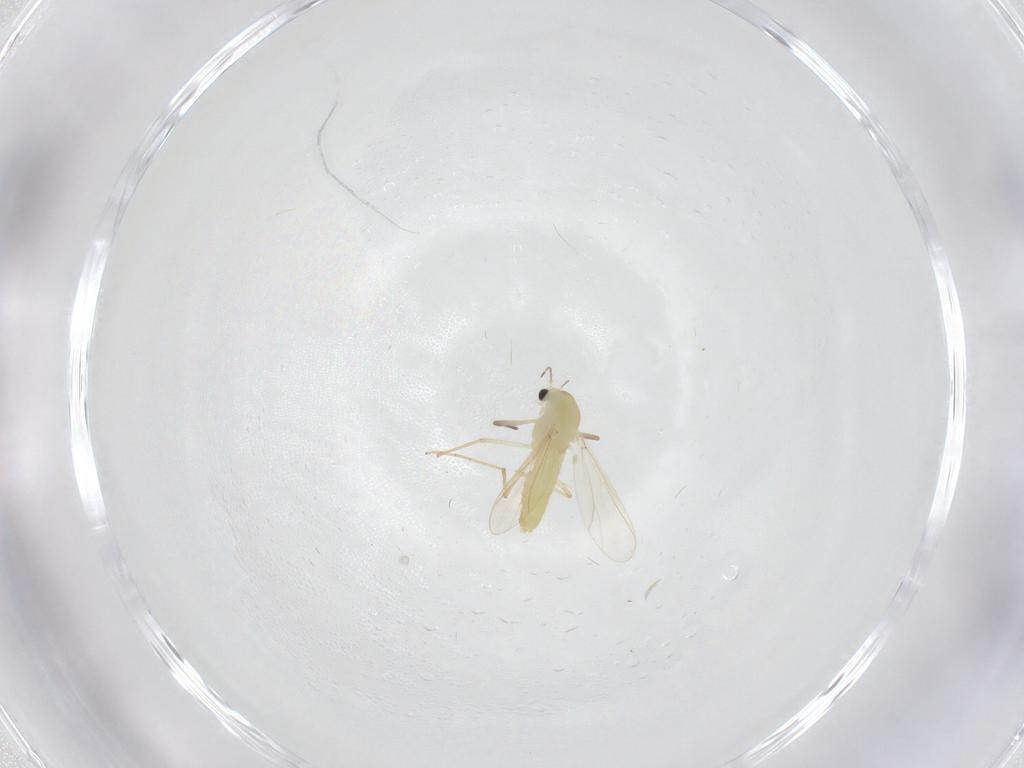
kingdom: Animalia
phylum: Arthropoda
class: Insecta
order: Diptera
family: Chironomidae
